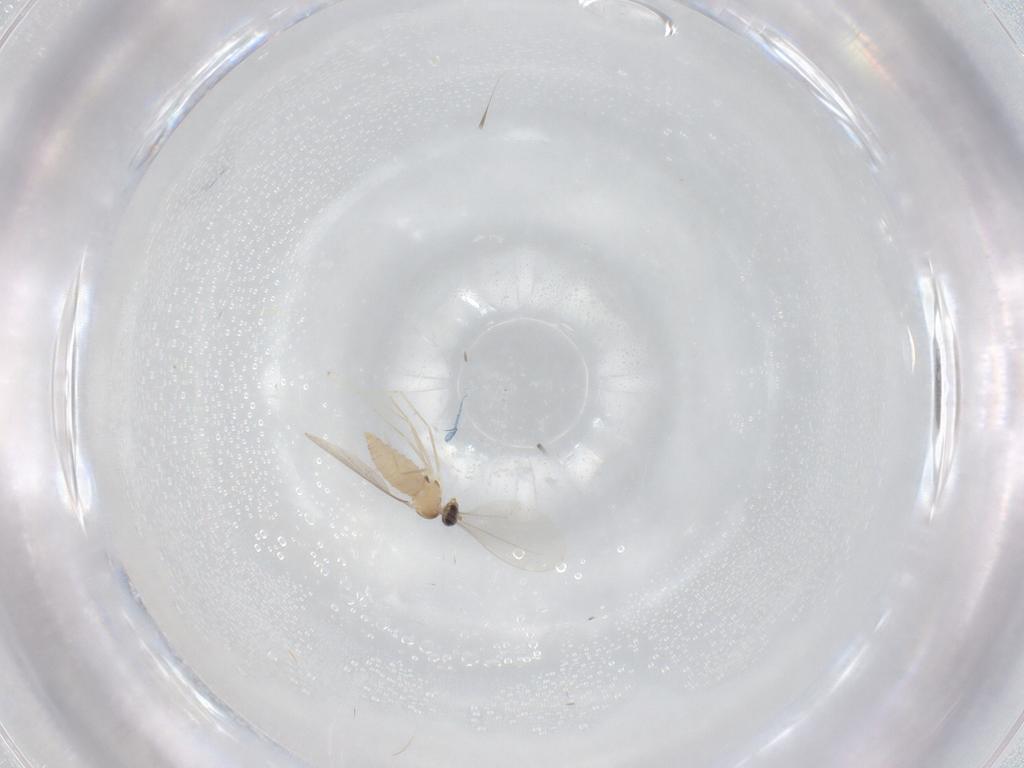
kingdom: Animalia
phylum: Arthropoda
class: Insecta
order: Diptera
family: Cecidomyiidae
